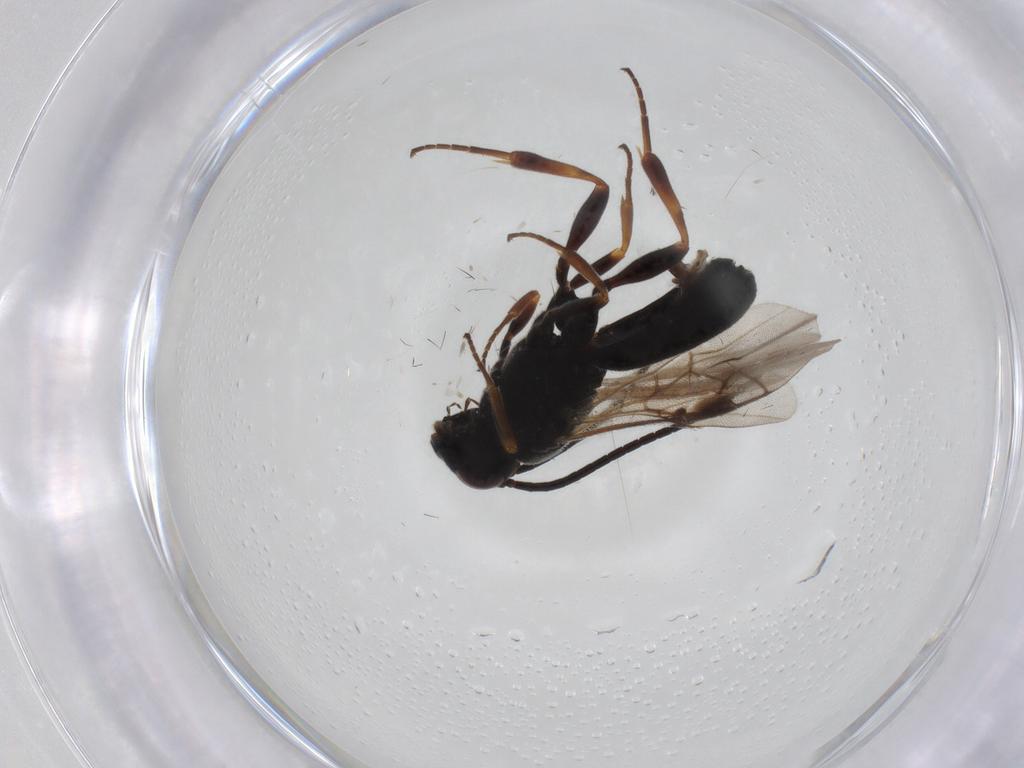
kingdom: Animalia
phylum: Arthropoda
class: Insecta
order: Hymenoptera
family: Braconidae
